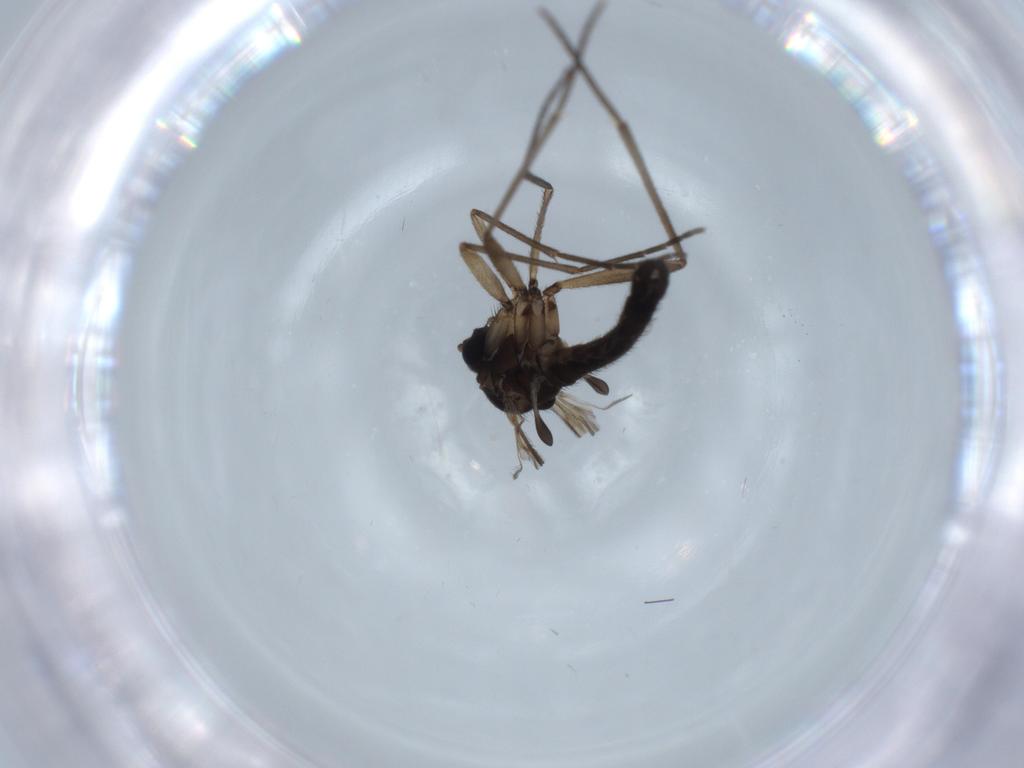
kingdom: Animalia
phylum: Arthropoda
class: Insecta
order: Diptera
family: Sciaridae
